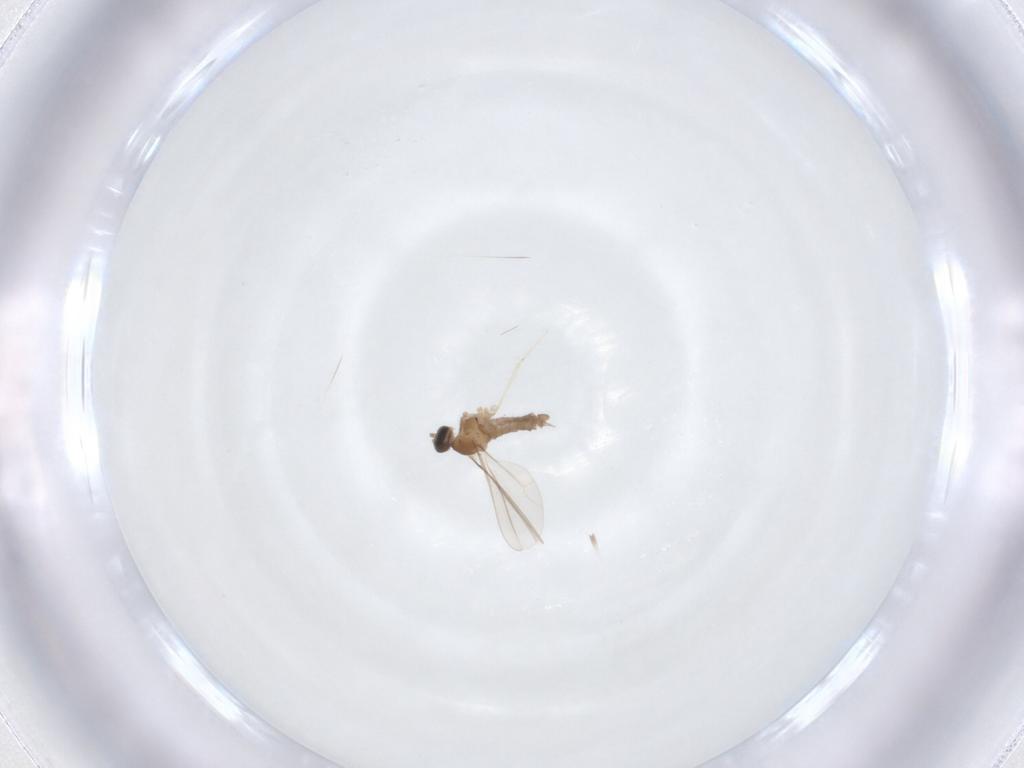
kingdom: Animalia
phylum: Arthropoda
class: Insecta
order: Diptera
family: Cecidomyiidae
